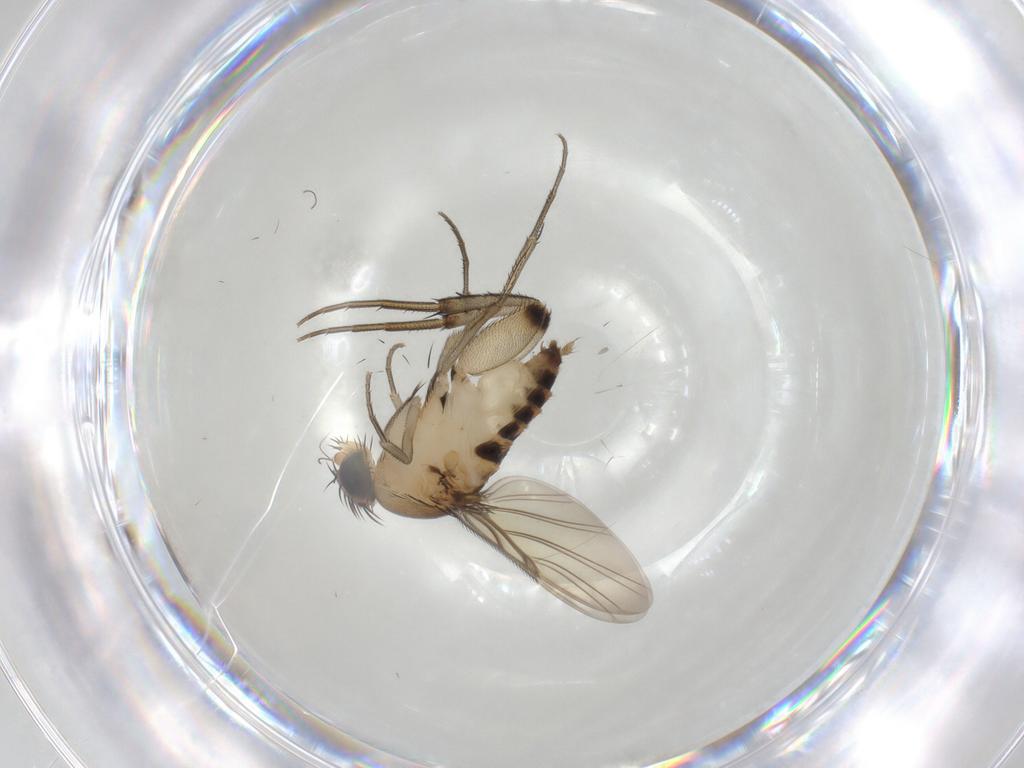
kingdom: Animalia
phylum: Arthropoda
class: Insecta
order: Diptera
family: Phoridae
